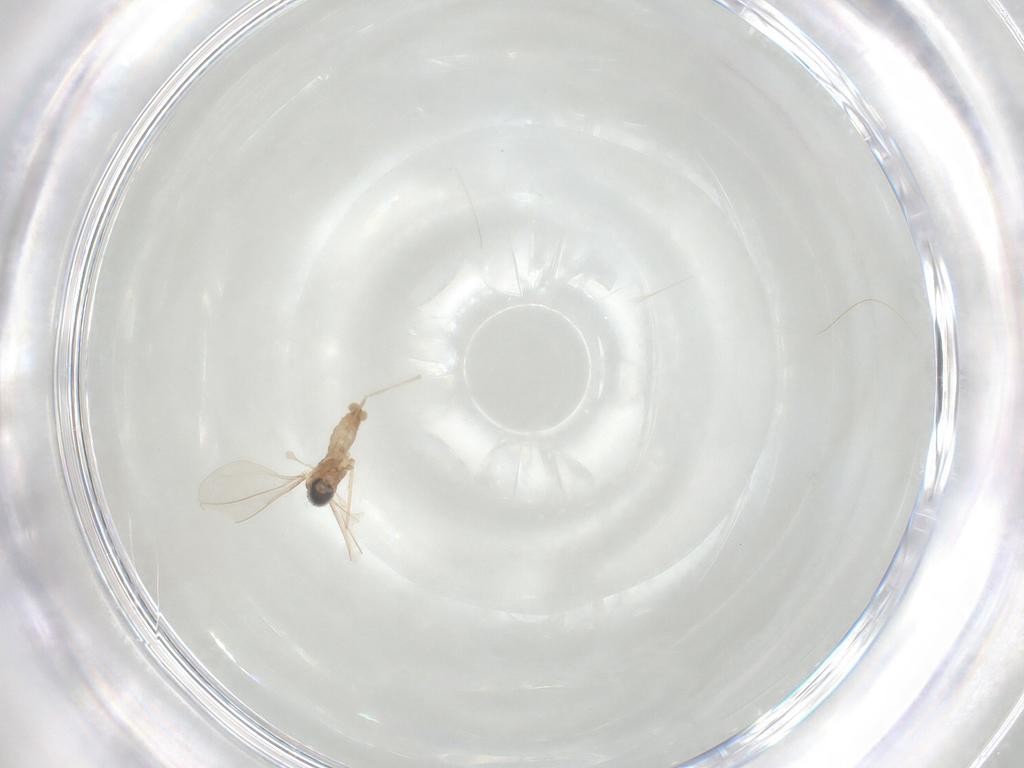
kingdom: Animalia
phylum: Arthropoda
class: Insecta
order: Diptera
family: Cecidomyiidae
